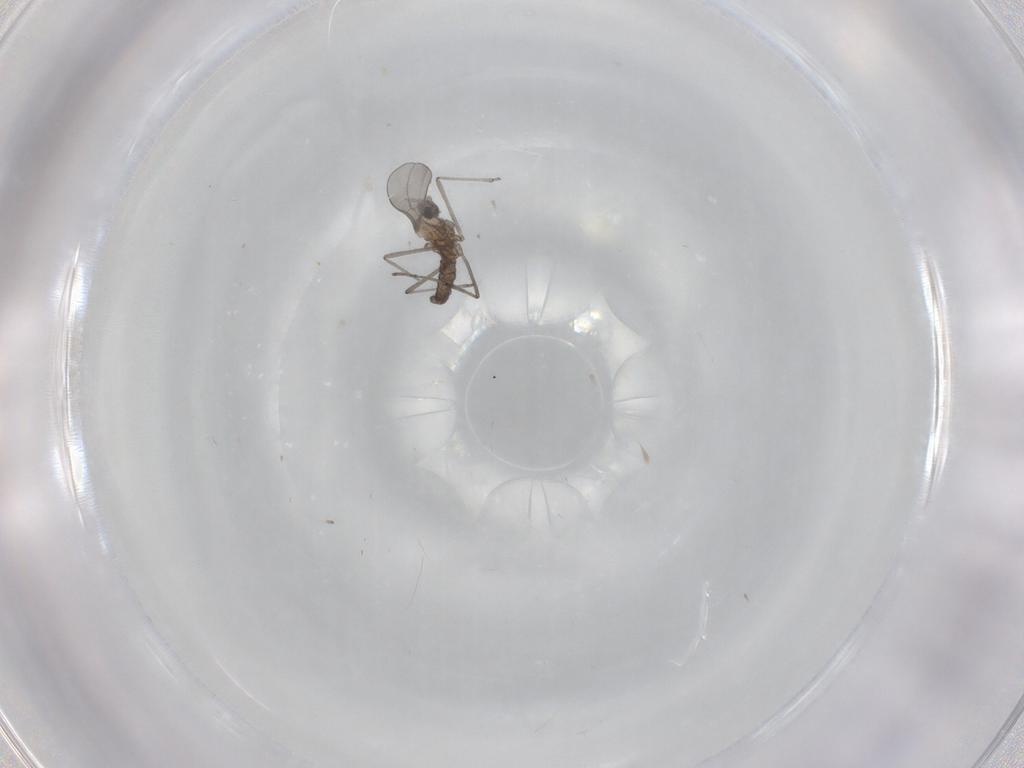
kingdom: Animalia
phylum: Arthropoda
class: Insecta
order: Diptera
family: Cecidomyiidae
